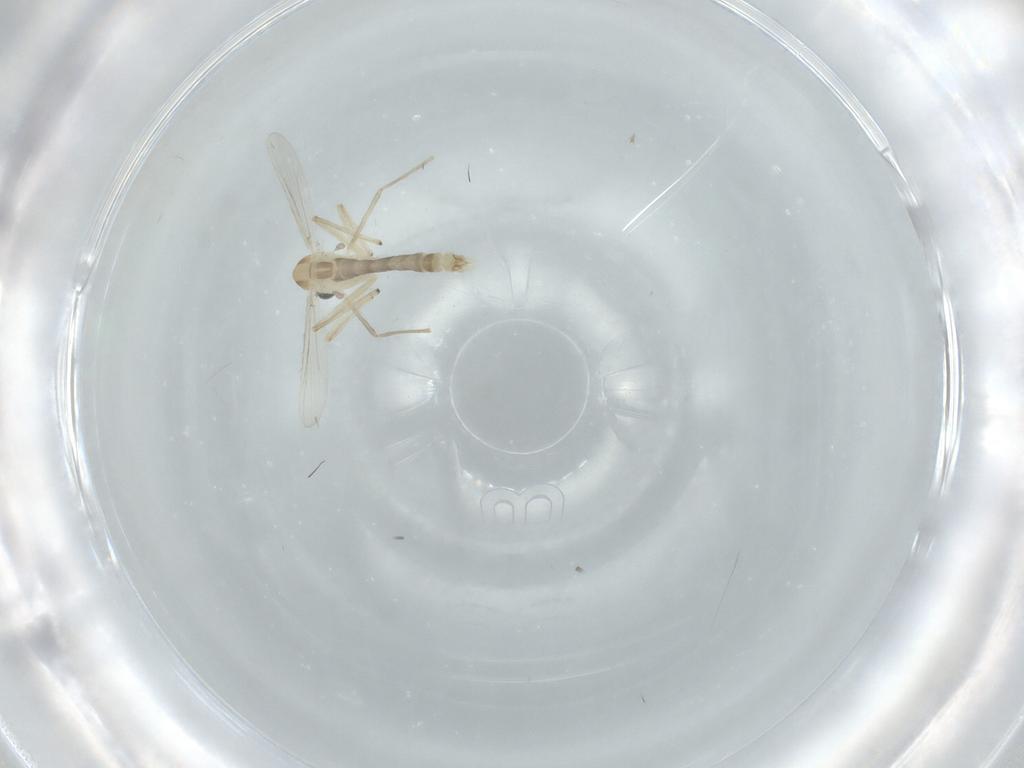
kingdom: Animalia
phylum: Arthropoda
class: Insecta
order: Diptera
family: Chironomidae
